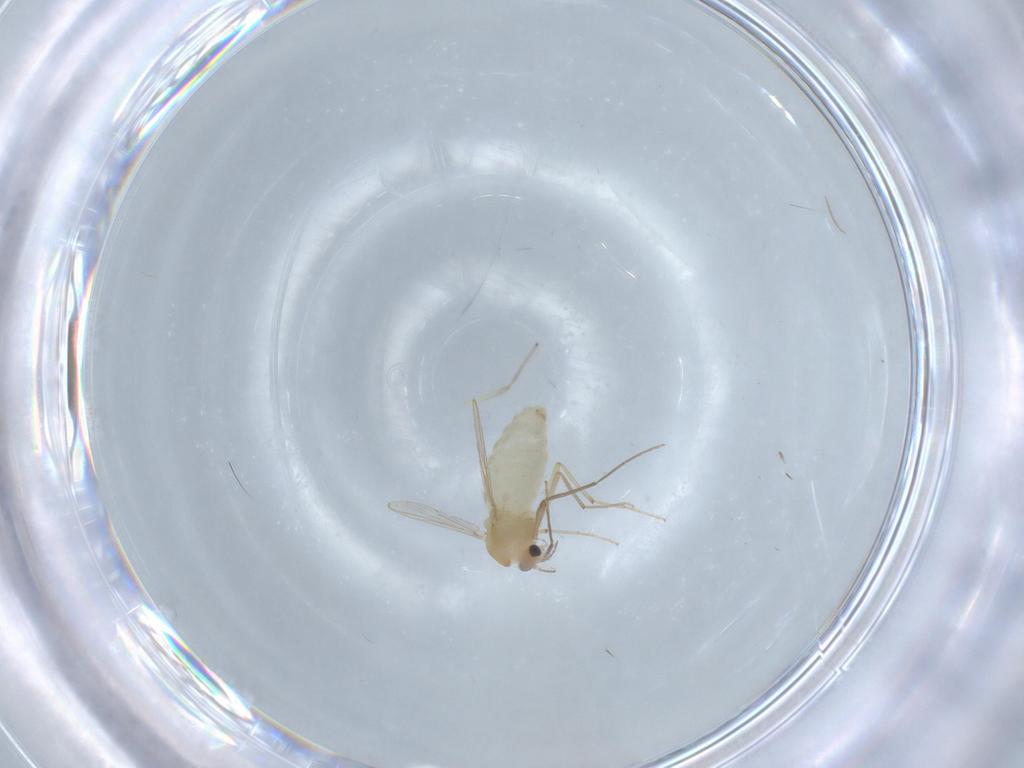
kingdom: Animalia
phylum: Arthropoda
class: Insecta
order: Diptera
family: Chironomidae
